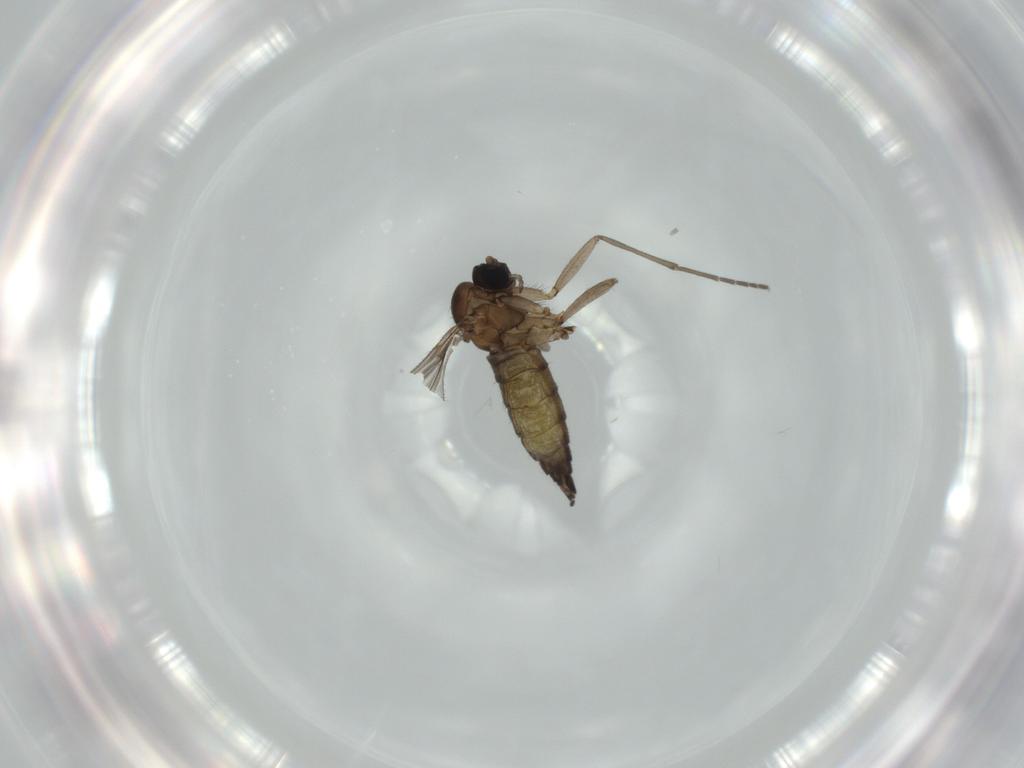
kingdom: Animalia
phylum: Arthropoda
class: Insecta
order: Diptera
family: Sciaridae
